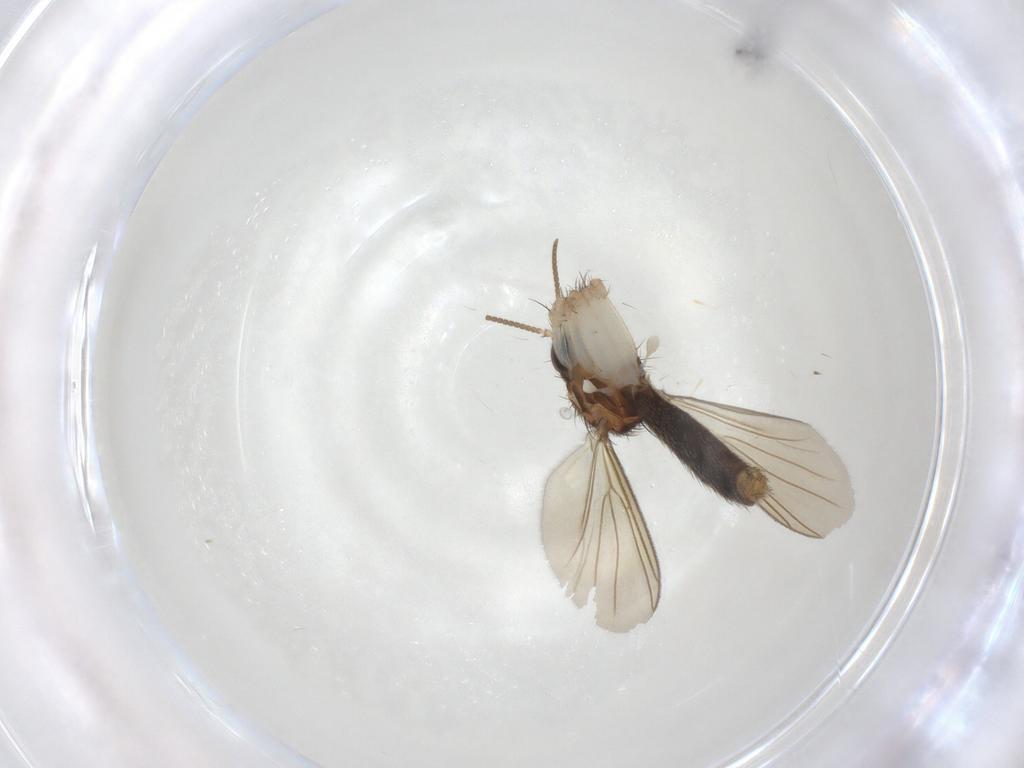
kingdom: Animalia
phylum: Arthropoda
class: Insecta
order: Diptera
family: Mycetophilidae
